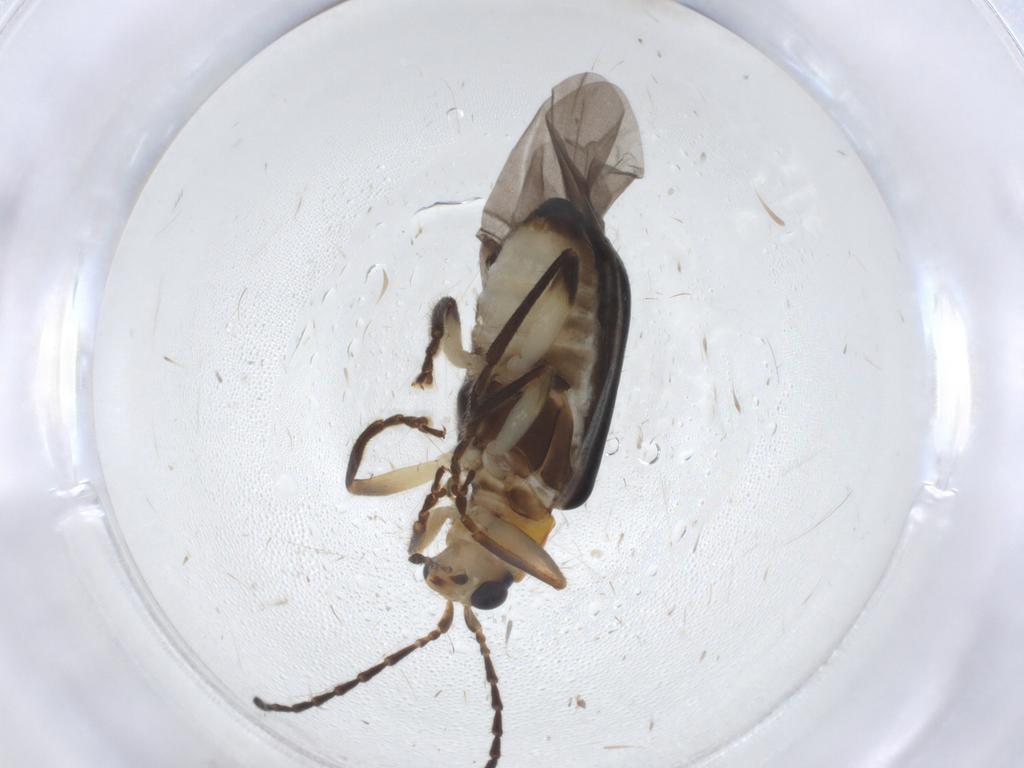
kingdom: Animalia
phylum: Arthropoda
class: Insecta
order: Coleoptera
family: Chrysomelidae
